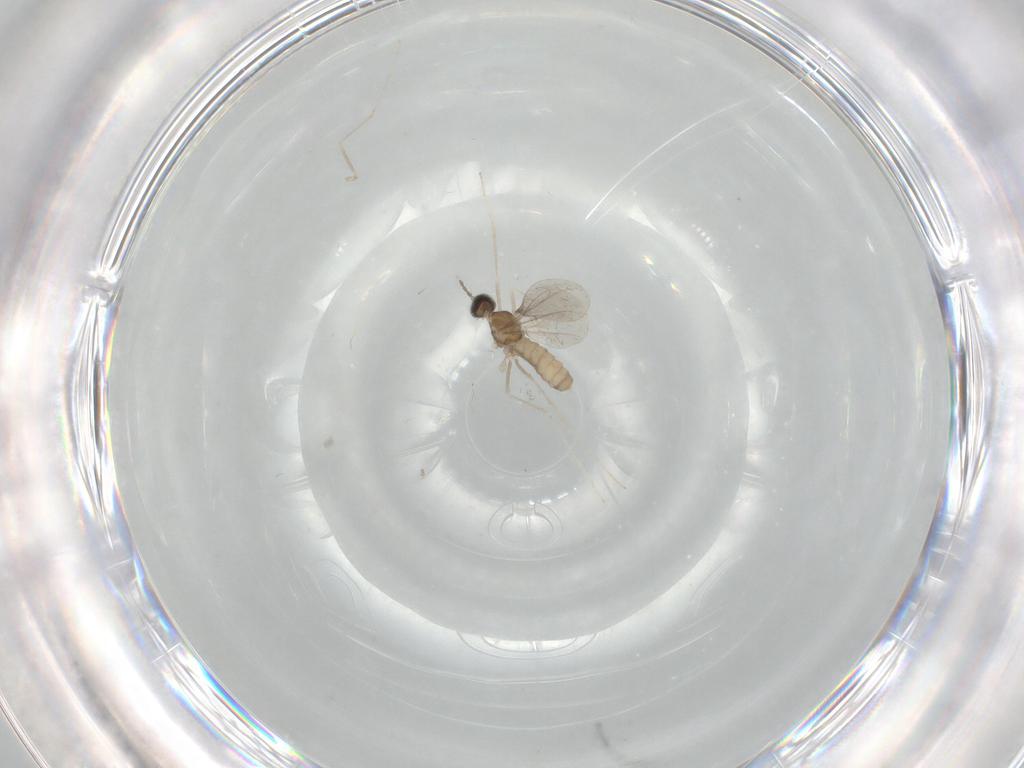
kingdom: Animalia
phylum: Arthropoda
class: Insecta
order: Diptera
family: Cecidomyiidae
